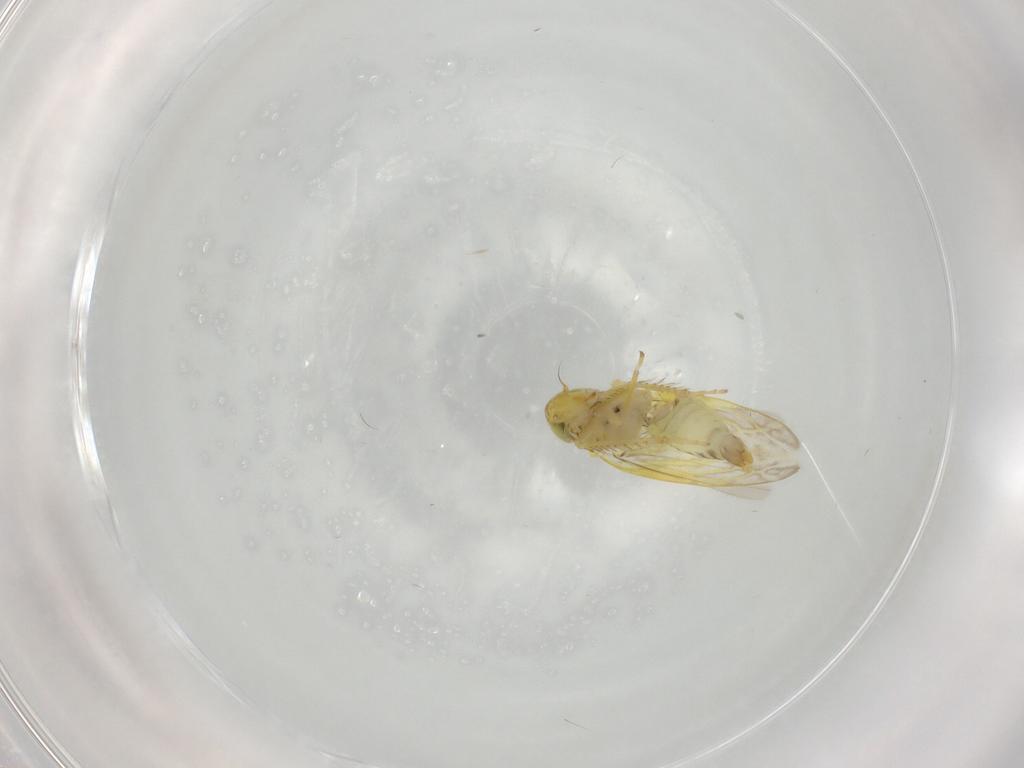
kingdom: Animalia
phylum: Arthropoda
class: Insecta
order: Hemiptera
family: Cicadellidae
